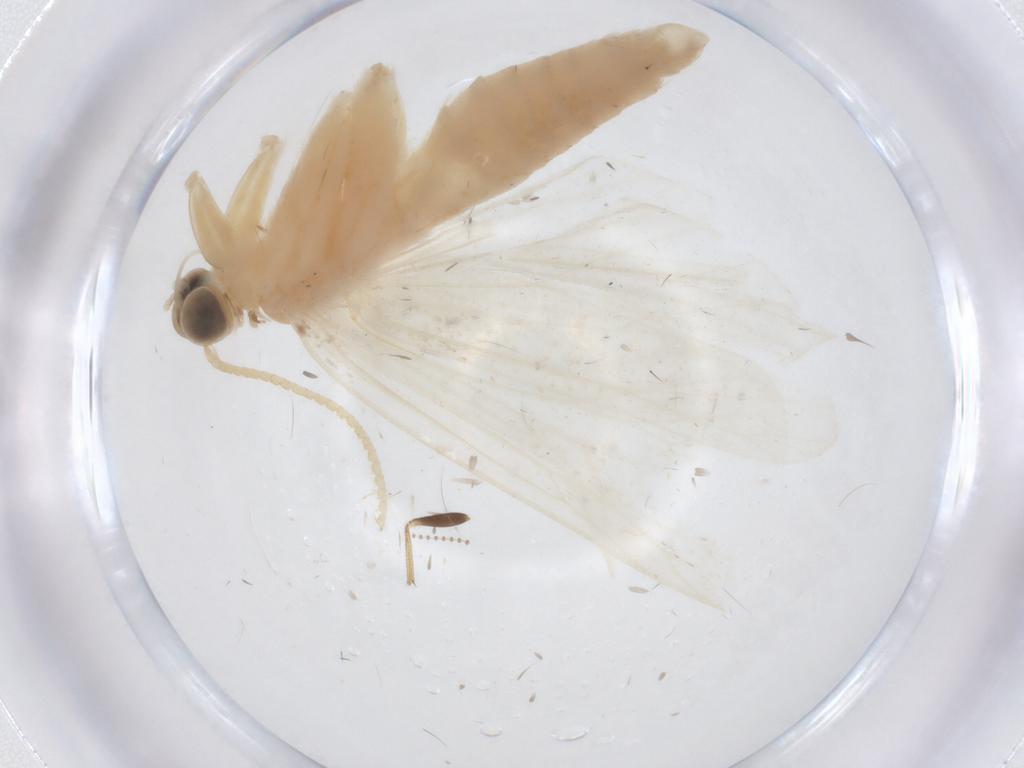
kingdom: Animalia
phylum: Arthropoda
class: Insecta
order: Lepidoptera
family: Crambidae
